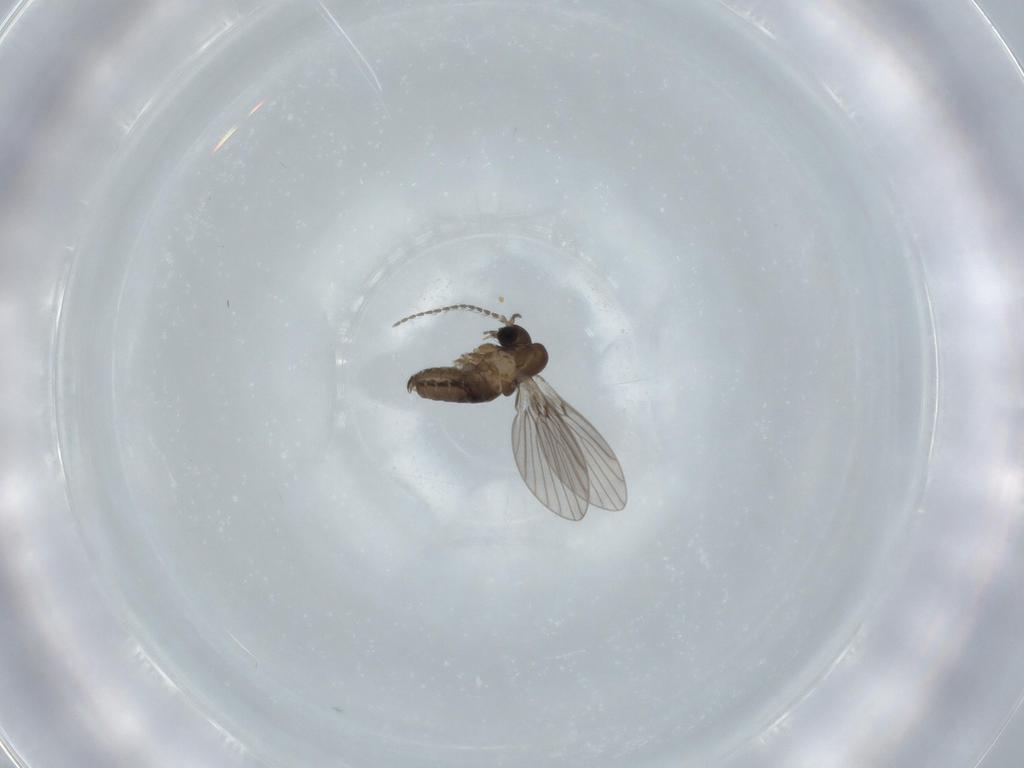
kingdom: Animalia
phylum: Arthropoda
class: Insecta
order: Diptera
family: Psychodidae
